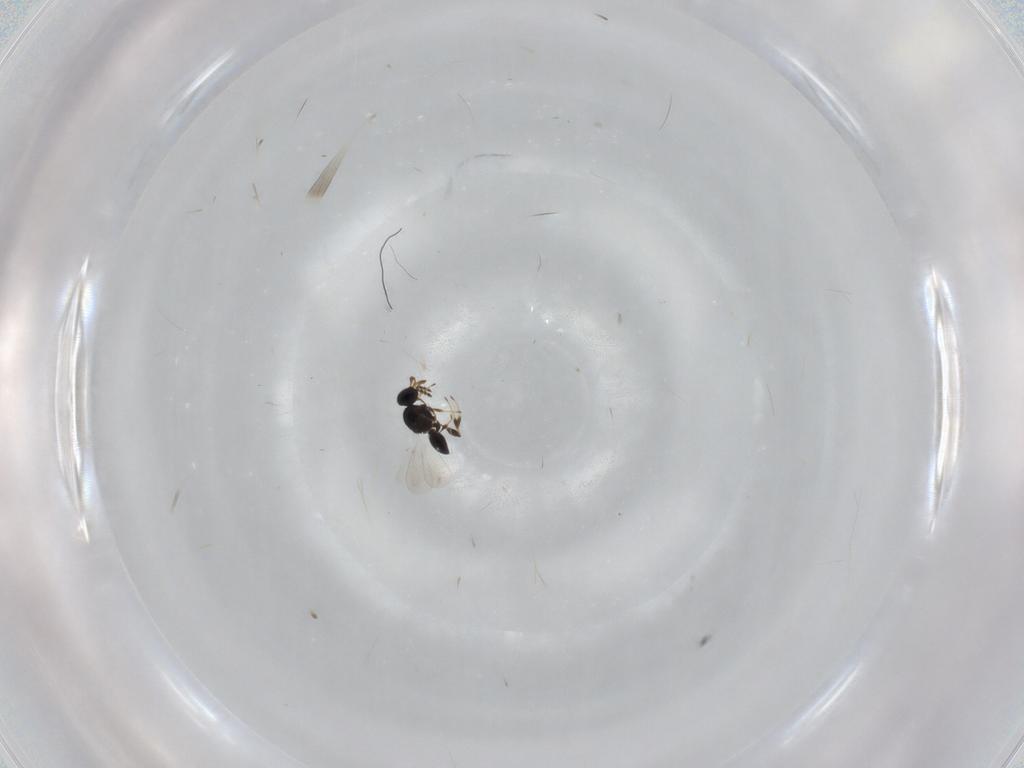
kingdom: Animalia
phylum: Arthropoda
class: Insecta
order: Hymenoptera
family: Platygastridae
